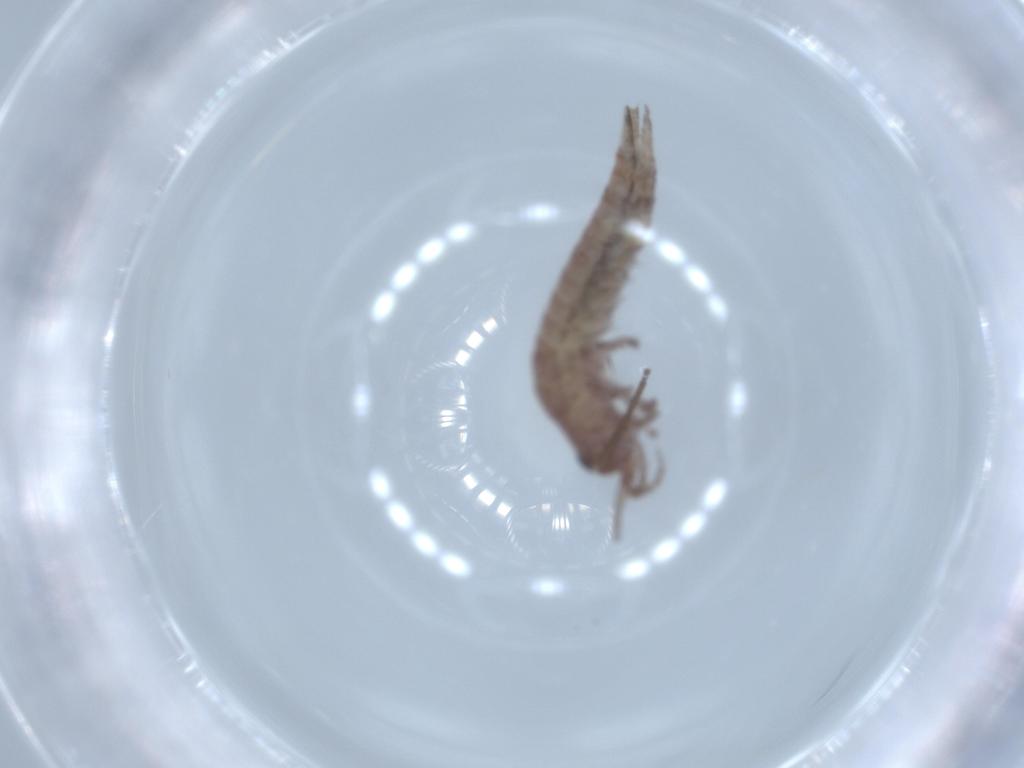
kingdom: Animalia
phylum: Arthropoda
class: Insecta
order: Archaeognatha
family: Machilidae
